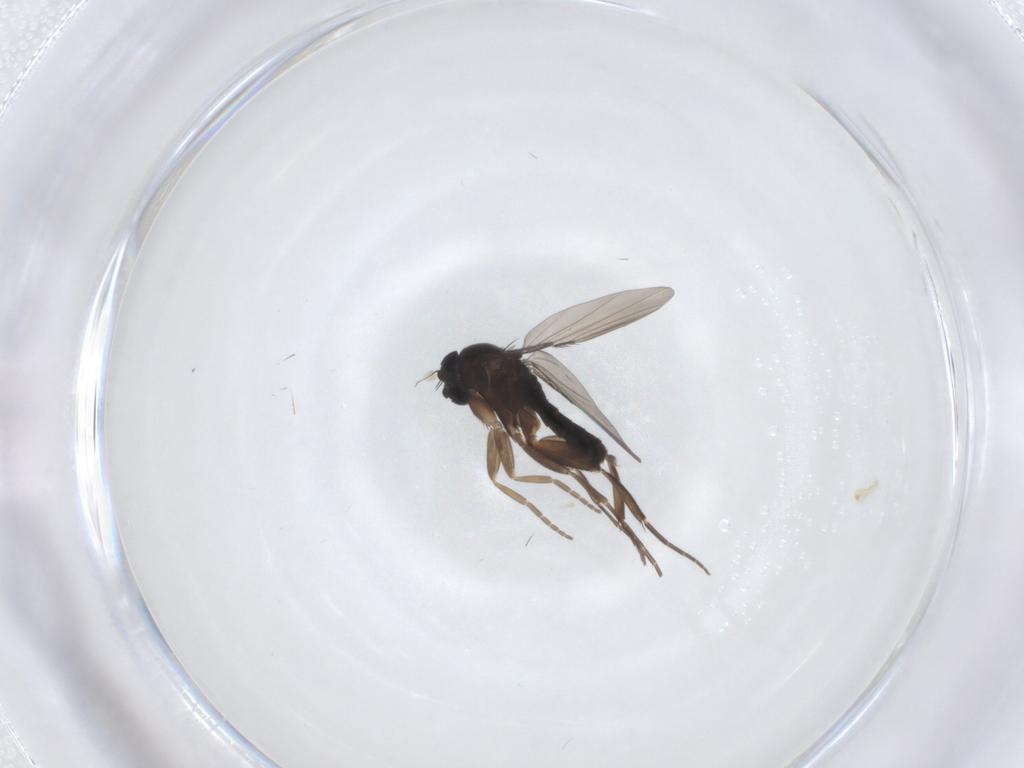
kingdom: Animalia
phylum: Arthropoda
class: Insecta
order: Diptera
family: Phoridae
